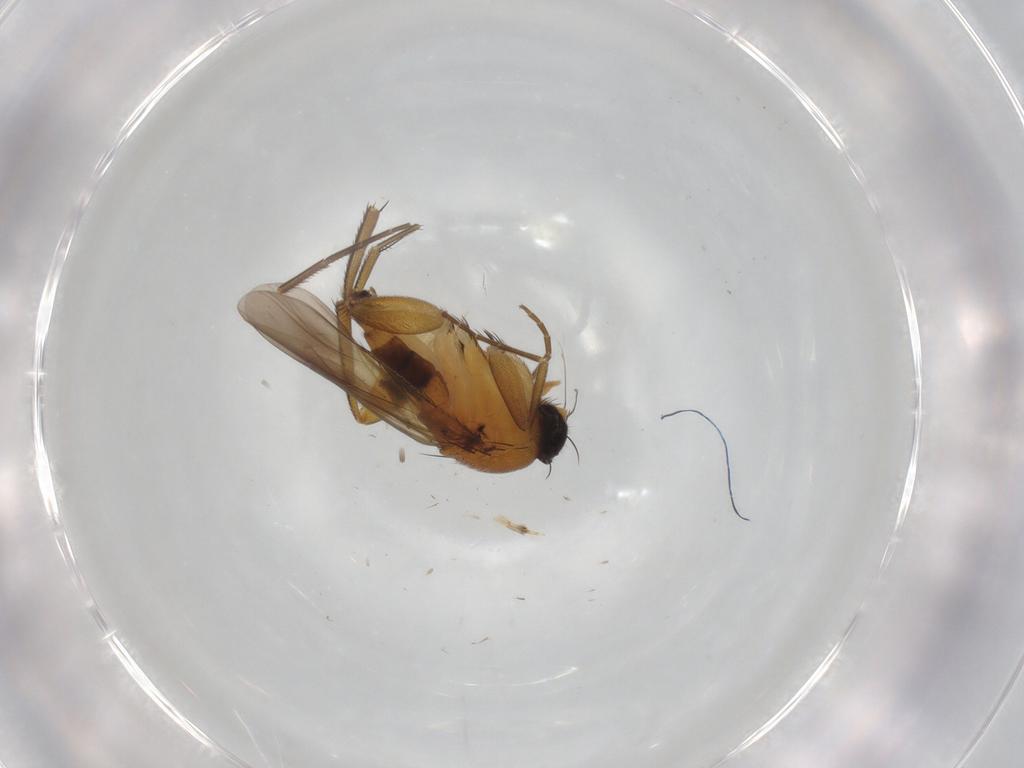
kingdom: Animalia
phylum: Arthropoda
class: Insecta
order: Diptera
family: Phoridae
